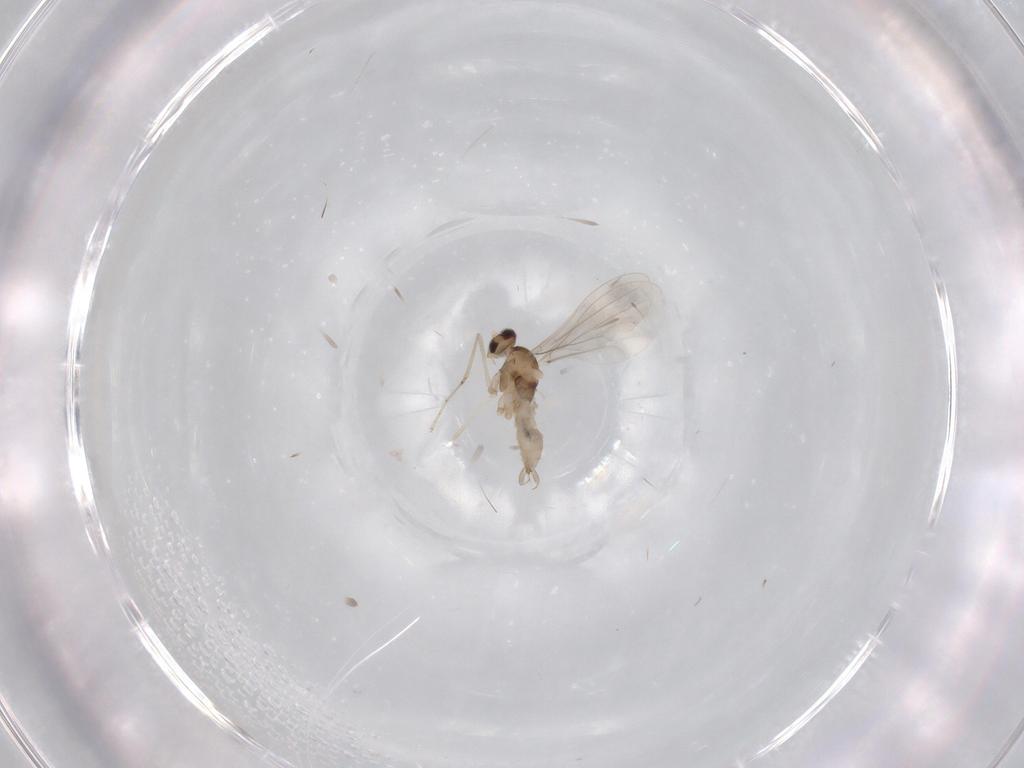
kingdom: Animalia
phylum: Arthropoda
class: Insecta
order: Diptera
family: Cecidomyiidae
